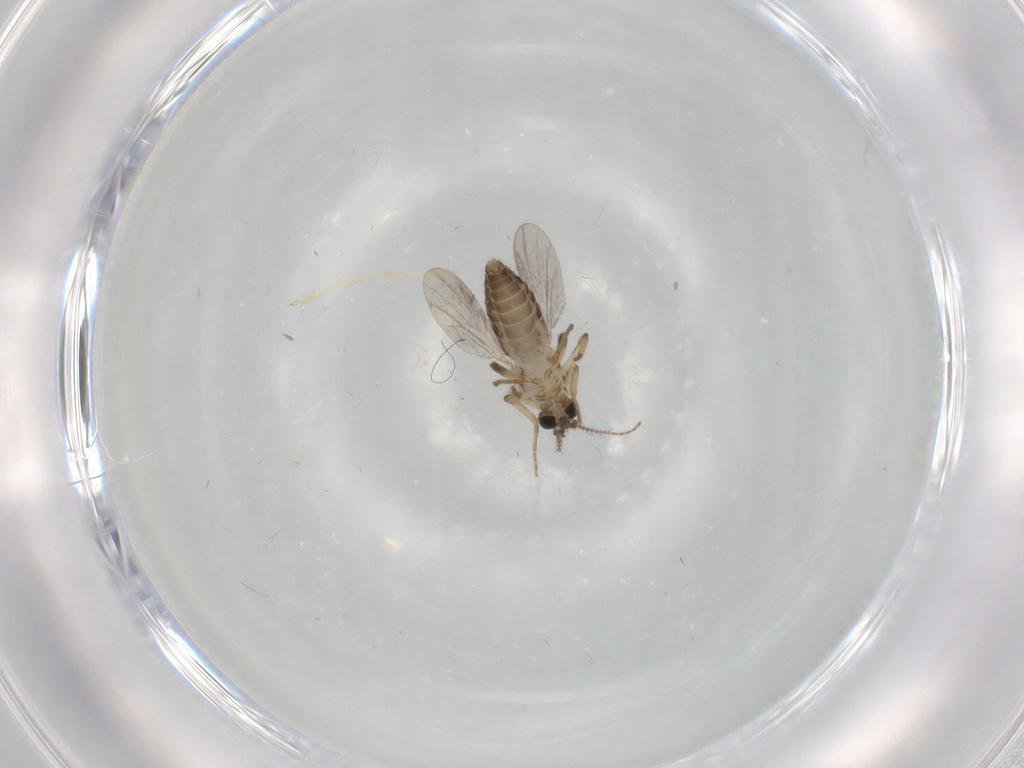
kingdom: Animalia
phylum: Arthropoda
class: Insecta
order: Diptera
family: Ceratopogonidae
